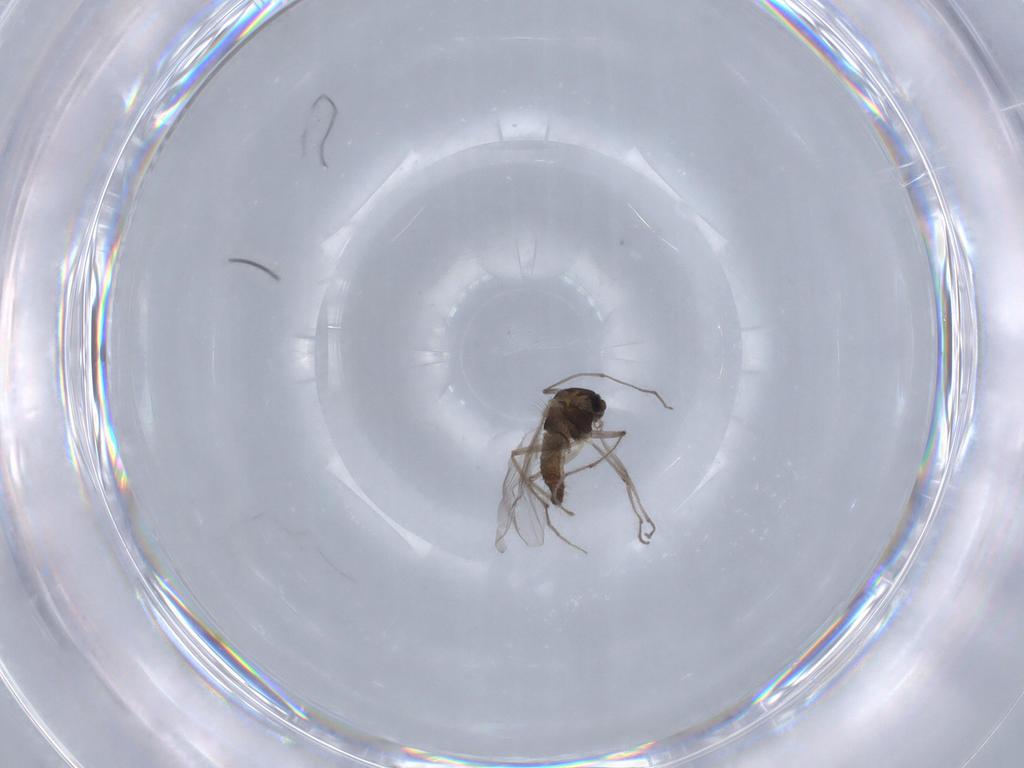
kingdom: Animalia
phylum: Arthropoda
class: Insecta
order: Diptera
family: Chironomidae
